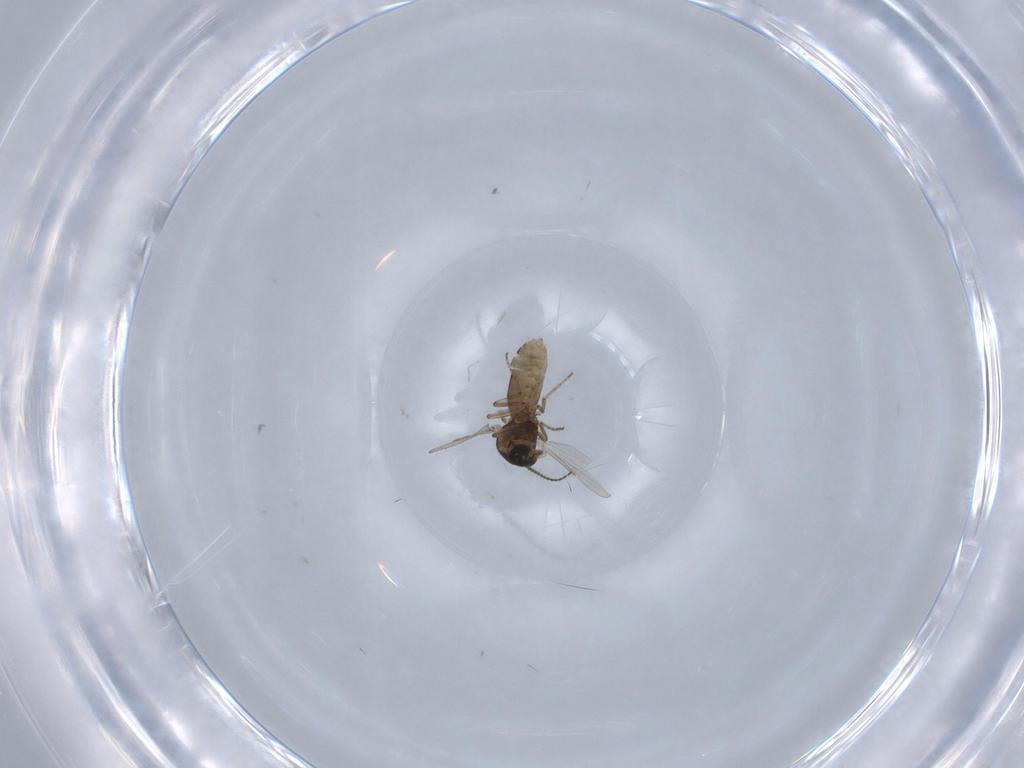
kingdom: Animalia
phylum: Arthropoda
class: Insecta
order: Diptera
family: Ceratopogonidae
